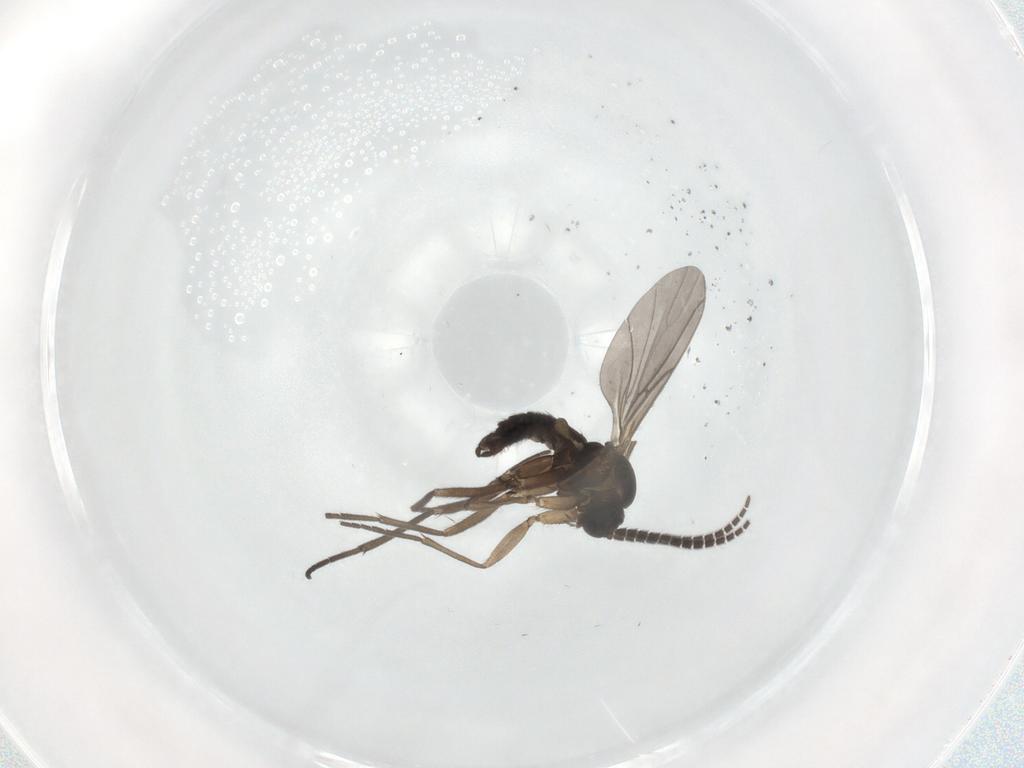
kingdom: Animalia
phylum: Arthropoda
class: Insecta
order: Diptera
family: Sciaridae
